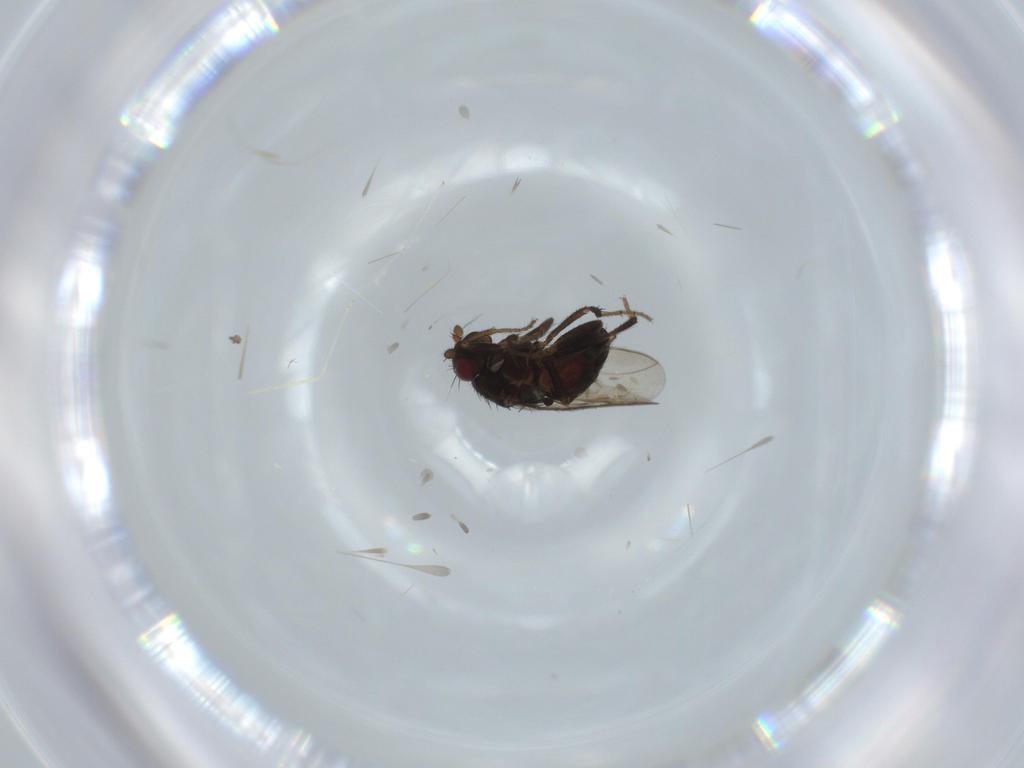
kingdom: Animalia
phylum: Arthropoda
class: Insecta
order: Diptera
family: Cecidomyiidae
